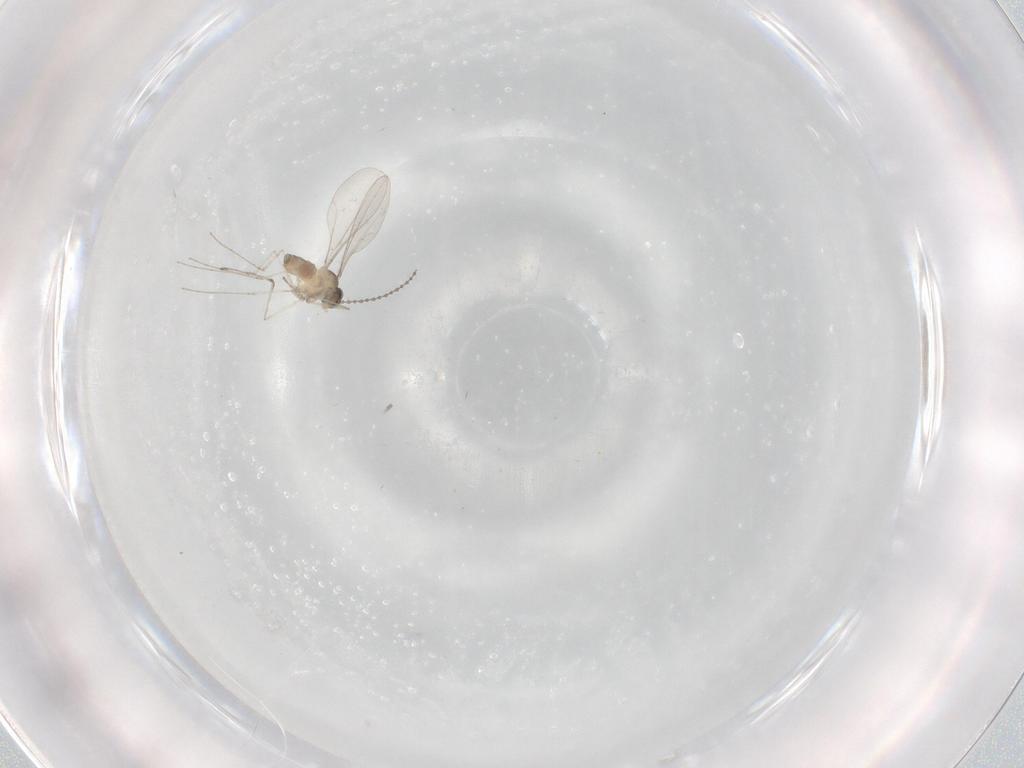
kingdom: Animalia
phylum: Arthropoda
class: Insecta
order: Diptera
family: Cecidomyiidae
